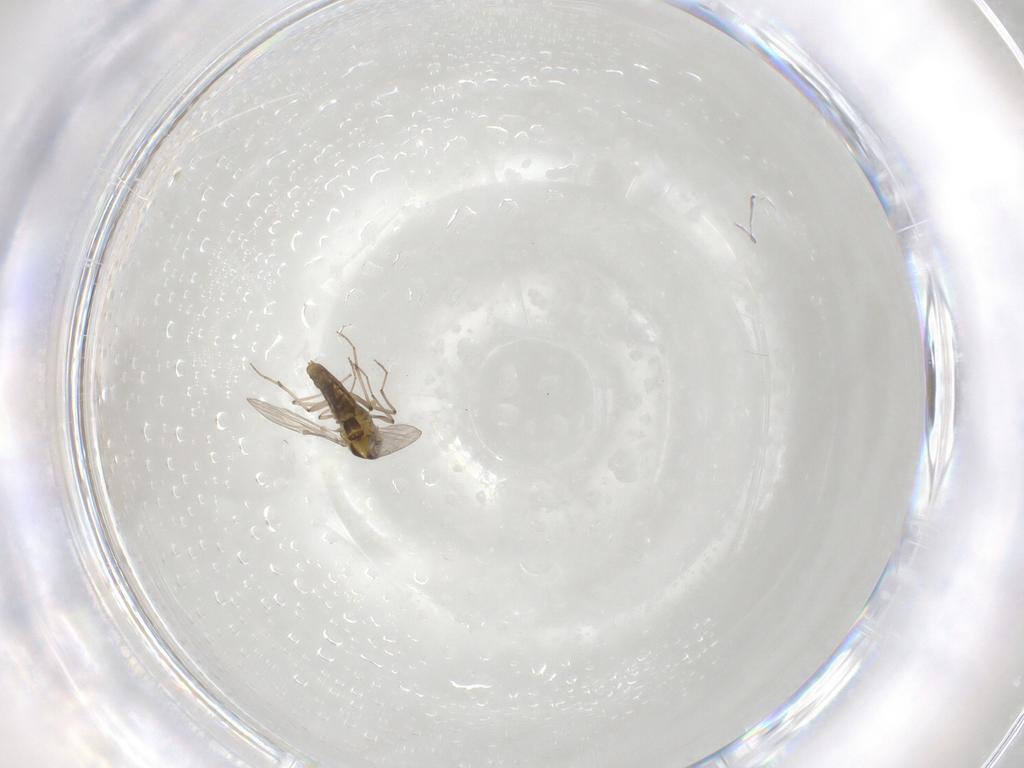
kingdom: Animalia
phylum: Arthropoda
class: Insecta
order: Diptera
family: Chironomidae
